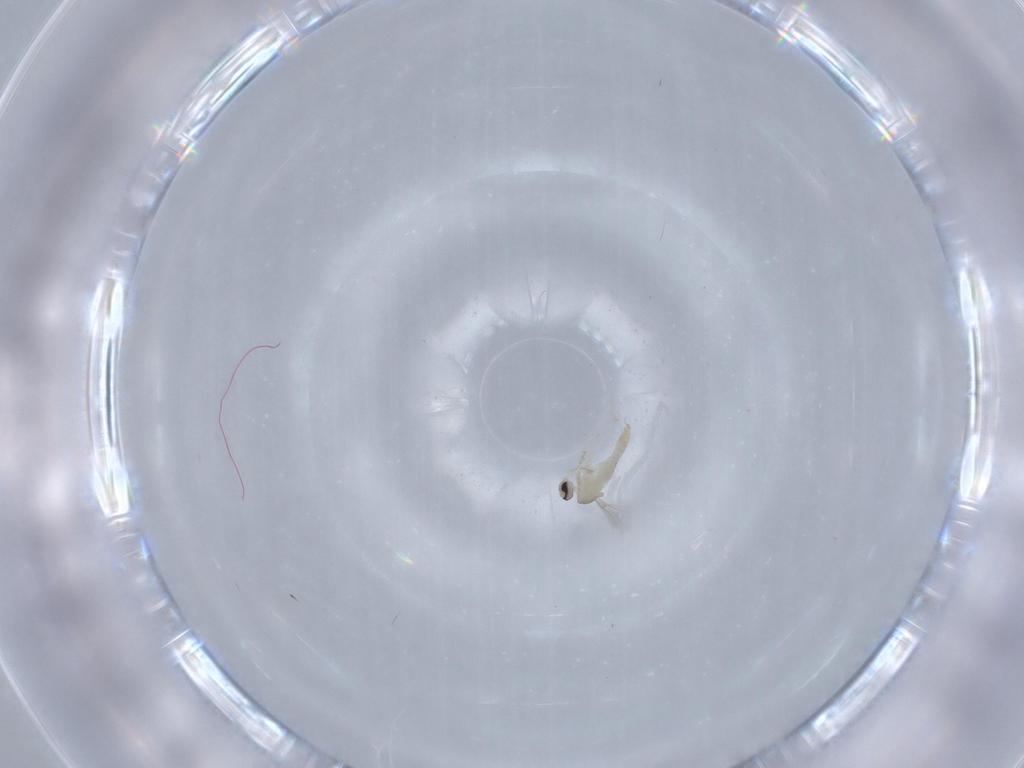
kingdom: Animalia
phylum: Arthropoda
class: Insecta
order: Diptera
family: Cecidomyiidae
